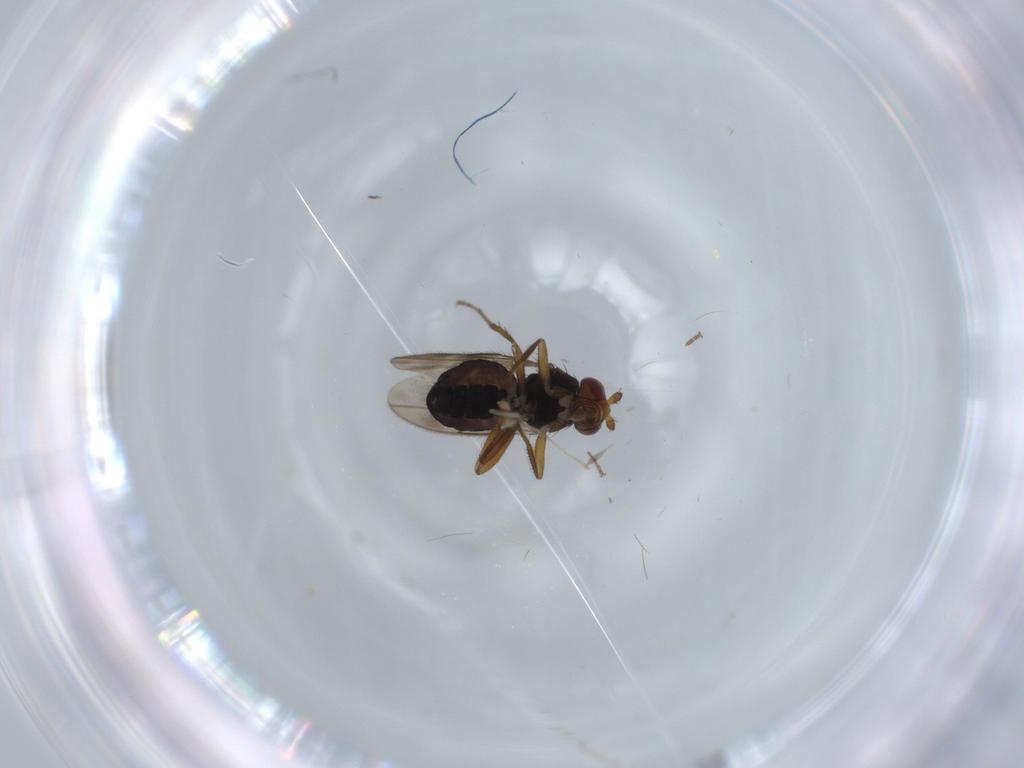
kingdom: Animalia
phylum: Arthropoda
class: Insecta
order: Diptera
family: Sphaeroceridae
